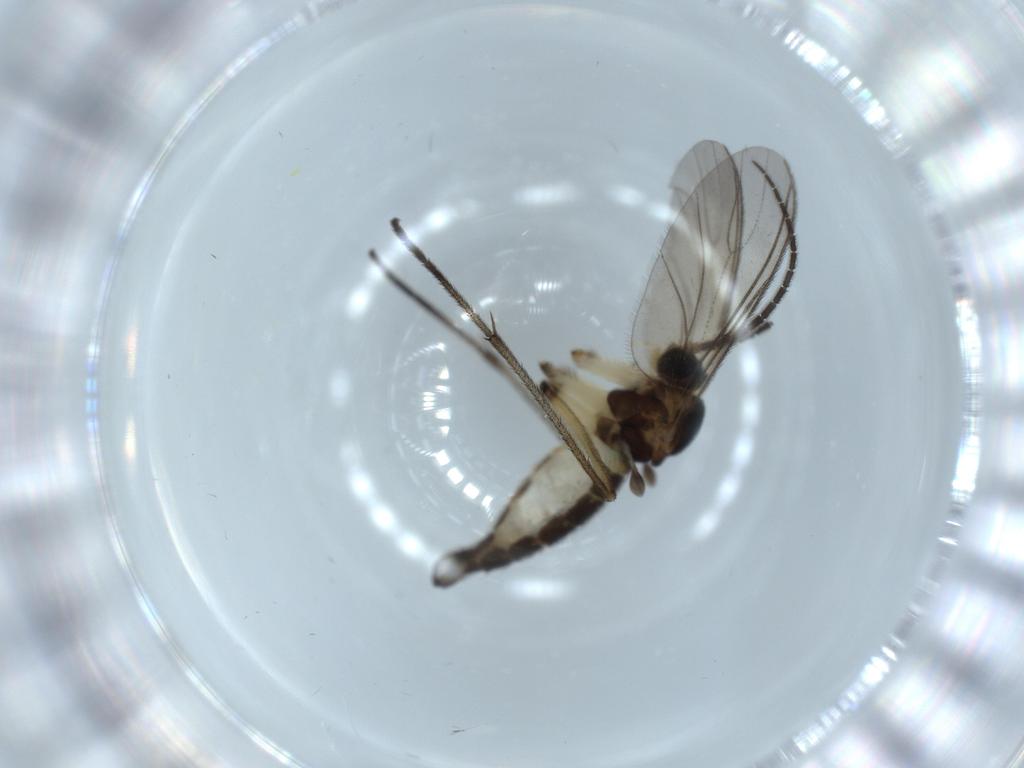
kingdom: Animalia
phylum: Arthropoda
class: Insecta
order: Diptera
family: Sciaridae
